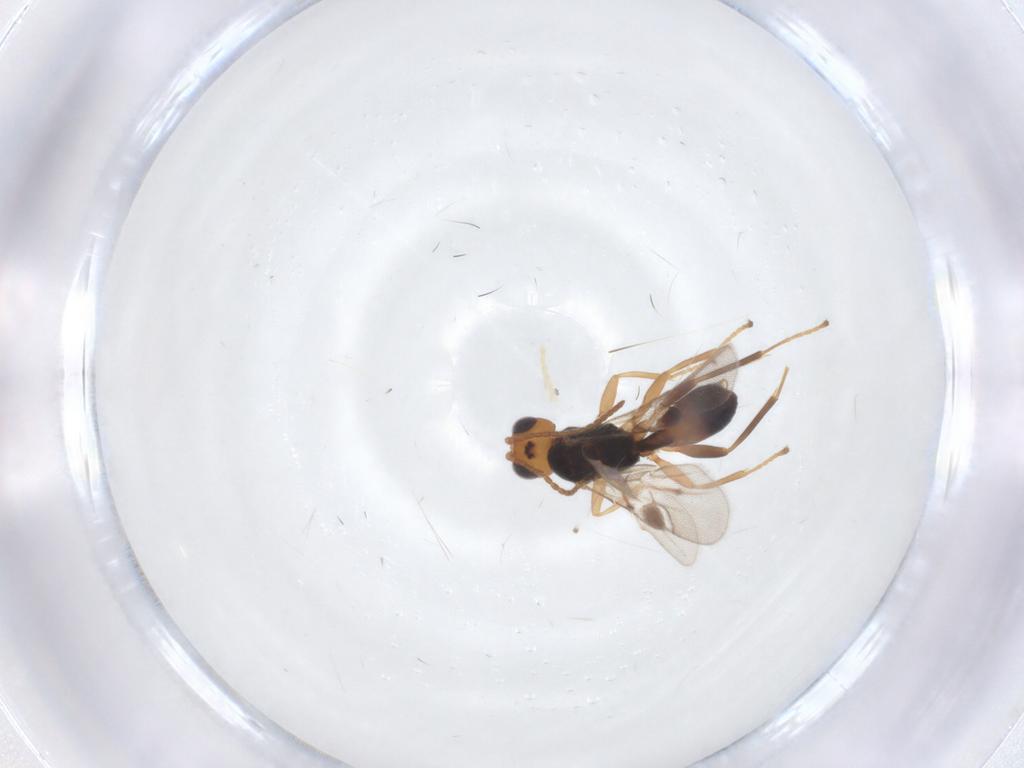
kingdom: Animalia
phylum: Arthropoda
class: Insecta
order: Hymenoptera
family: Braconidae
